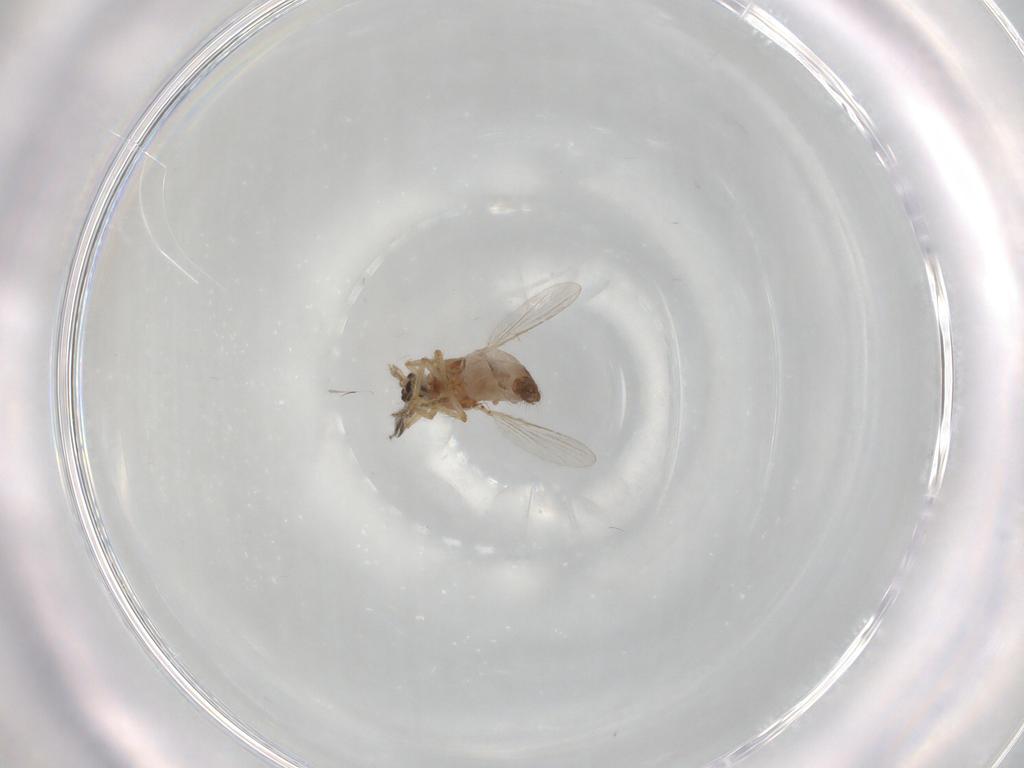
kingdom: Animalia
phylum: Arthropoda
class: Insecta
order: Diptera
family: Ceratopogonidae
